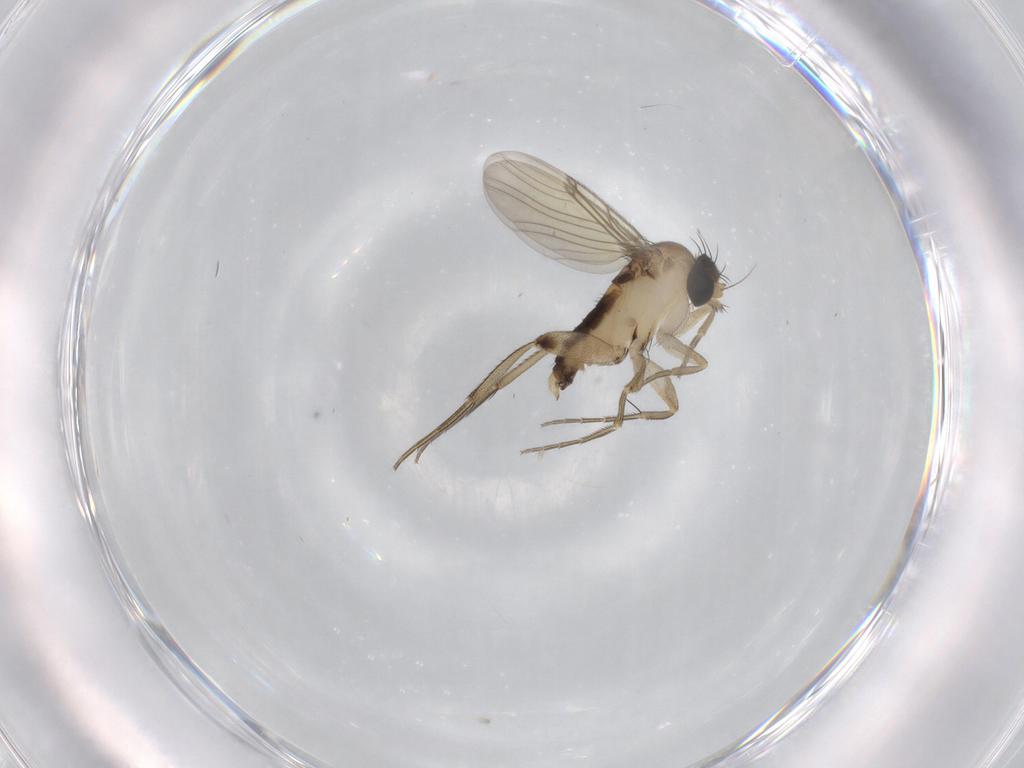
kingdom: Animalia
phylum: Arthropoda
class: Insecta
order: Diptera
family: Phoridae
